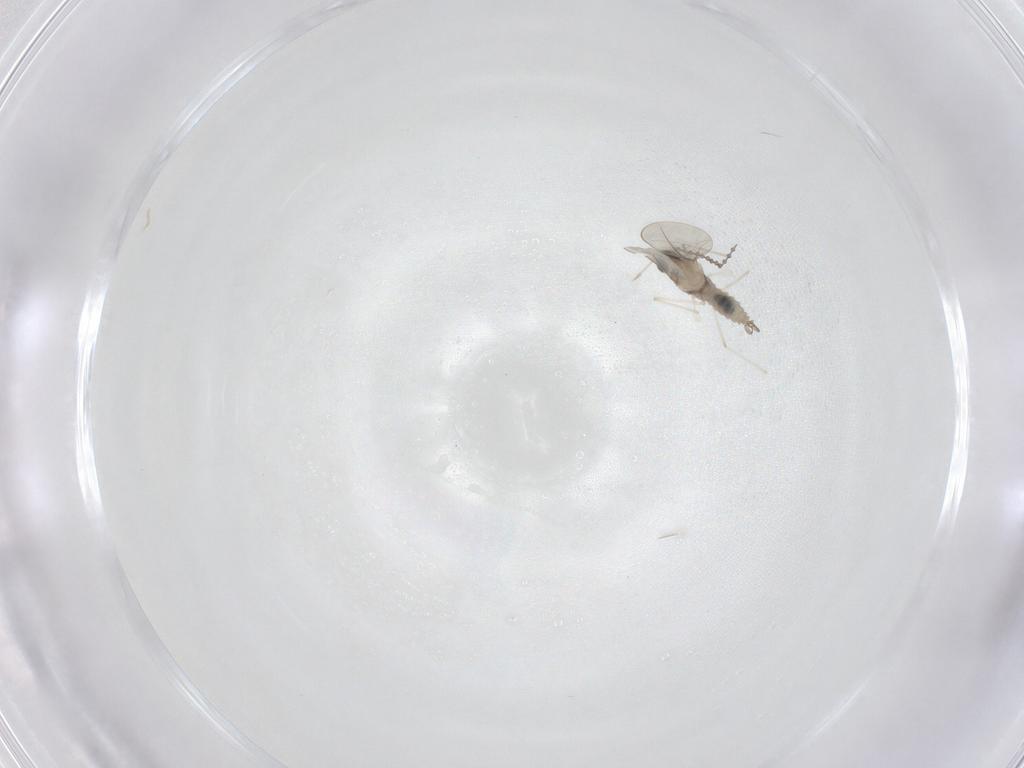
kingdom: Animalia
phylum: Arthropoda
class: Insecta
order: Diptera
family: Cecidomyiidae
